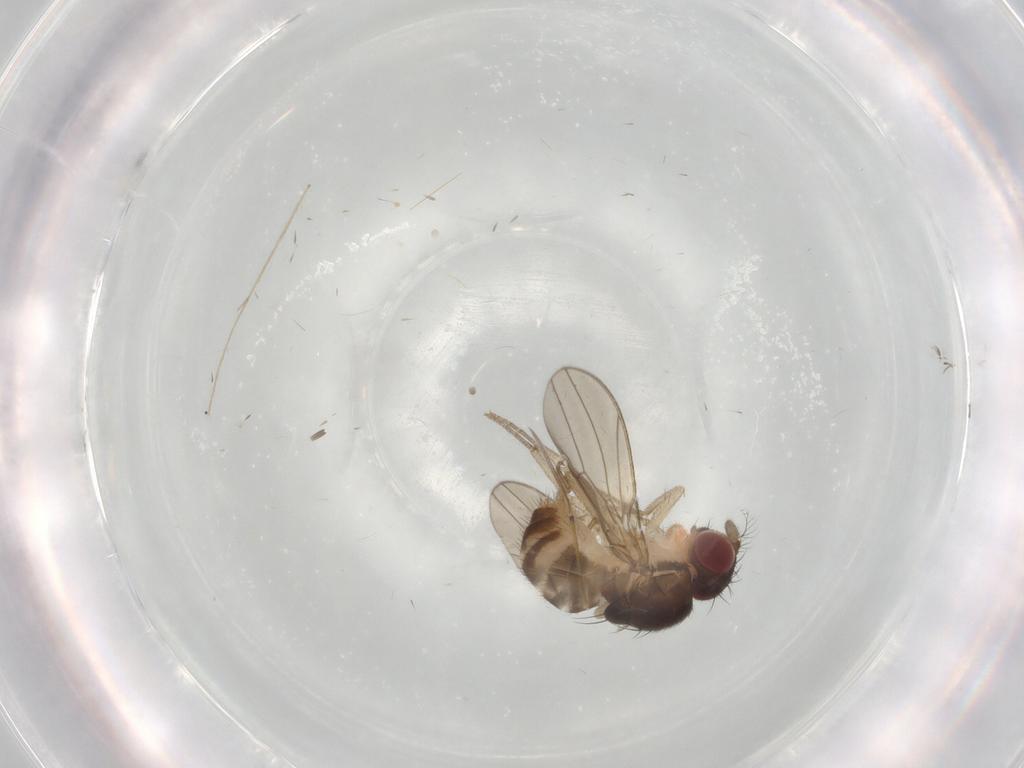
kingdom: Animalia
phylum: Arthropoda
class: Insecta
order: Diptera
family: Drosophilidae
